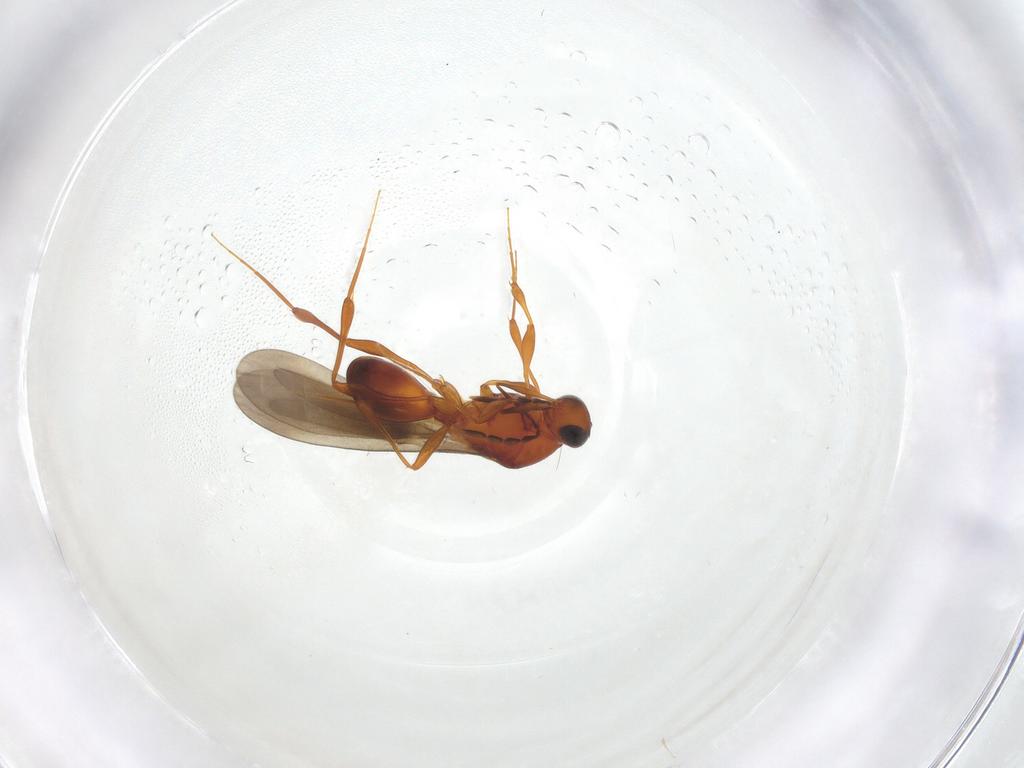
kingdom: Animalia
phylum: Arthropoda
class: Insecta
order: Hymenoptera
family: Platygastridae
